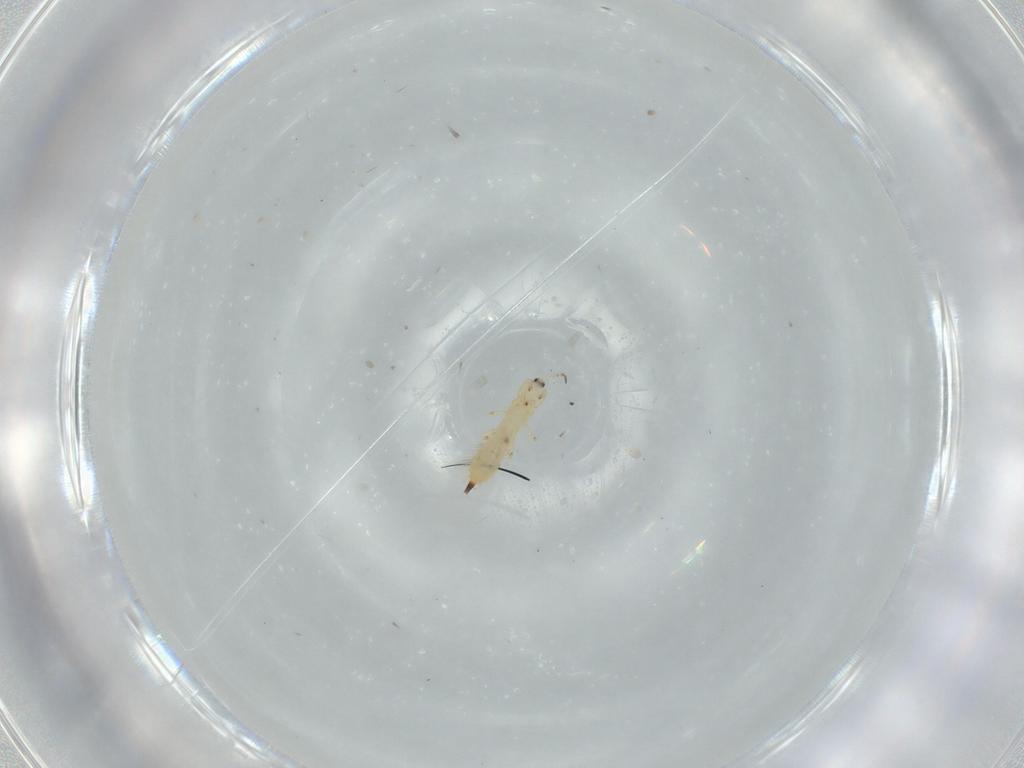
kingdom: Animalia
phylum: Arthropoda
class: Insecta
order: Thysanoptera
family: Phlaeothripidae
